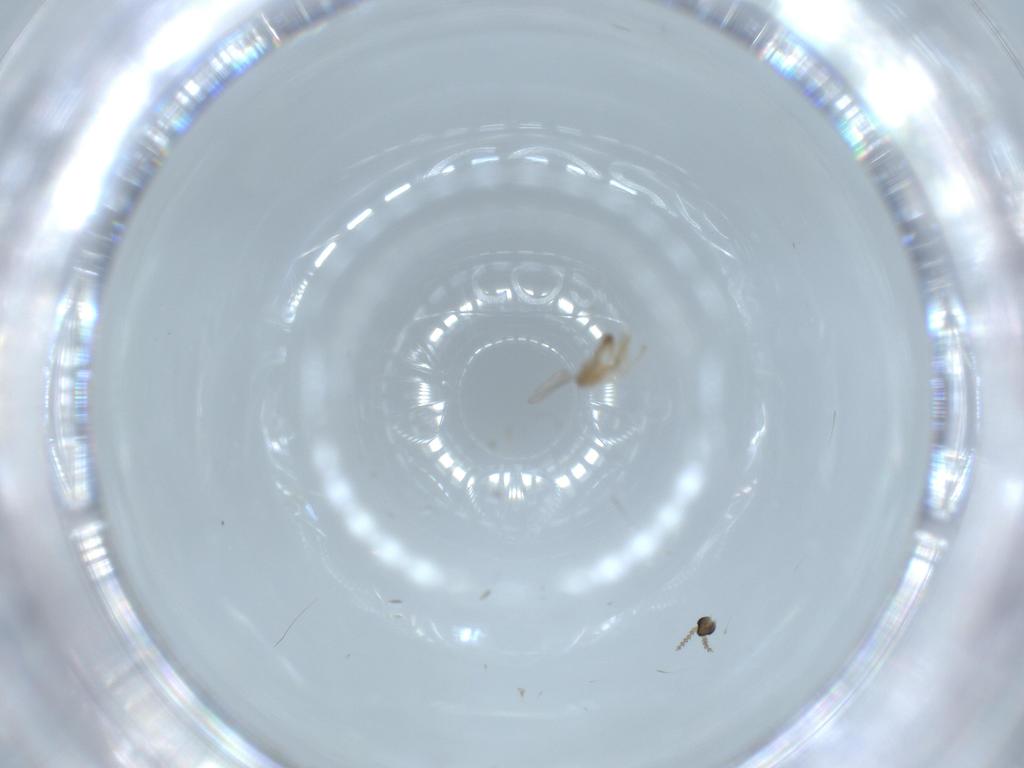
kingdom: Animalia
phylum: Arthropoda
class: Insecta
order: Diptera
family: Cecidomyiidae
